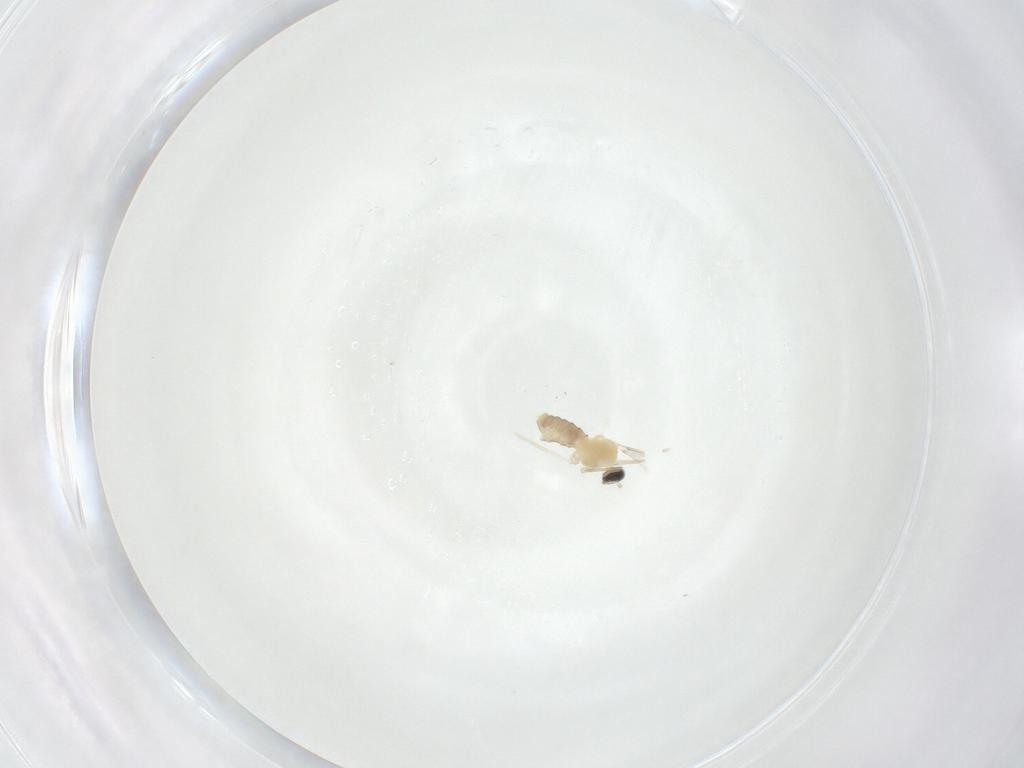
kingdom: Animalia
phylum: Arthropoda
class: Insecta
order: Diptera
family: Cecidomyiidae
